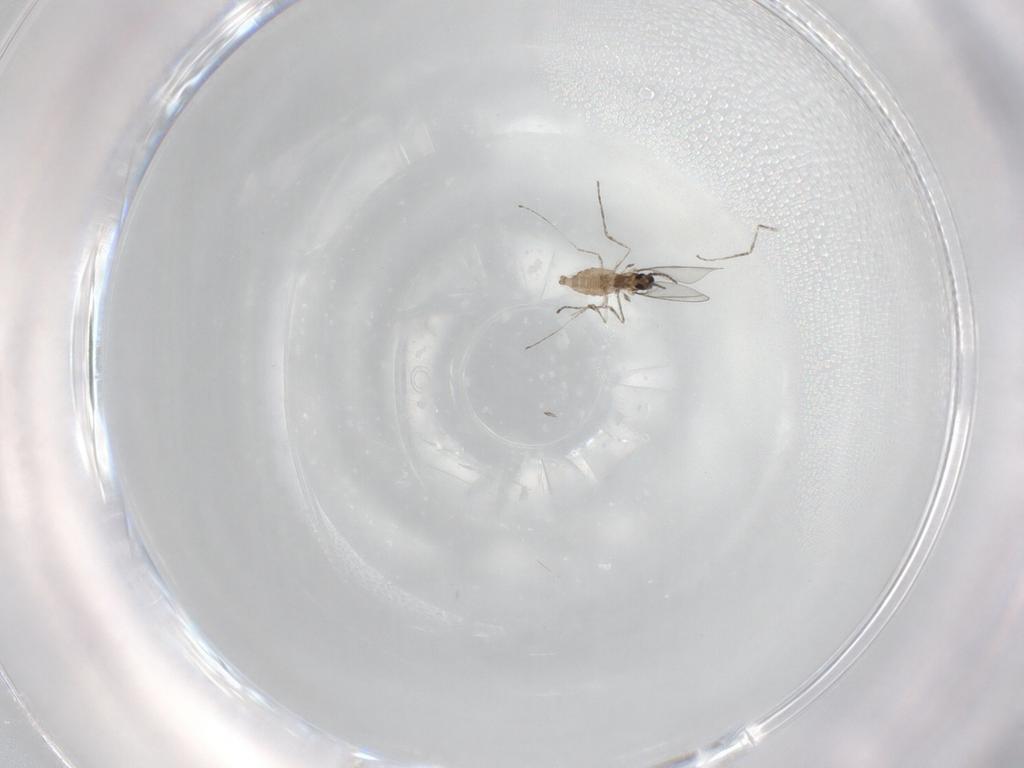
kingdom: Animalia
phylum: Arthropoda
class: Insecta
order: Diptera
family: Cecidomyiidae
